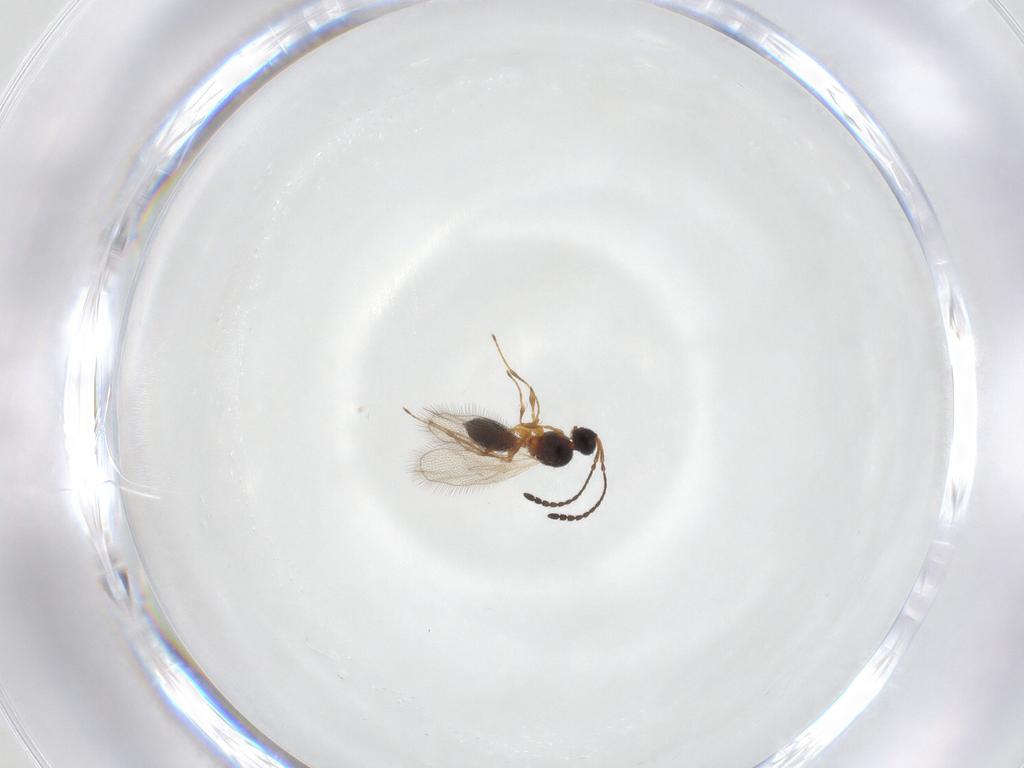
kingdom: Animalia
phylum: Arthropoda
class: Insecta
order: Hymenoptera
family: Diapriidae
